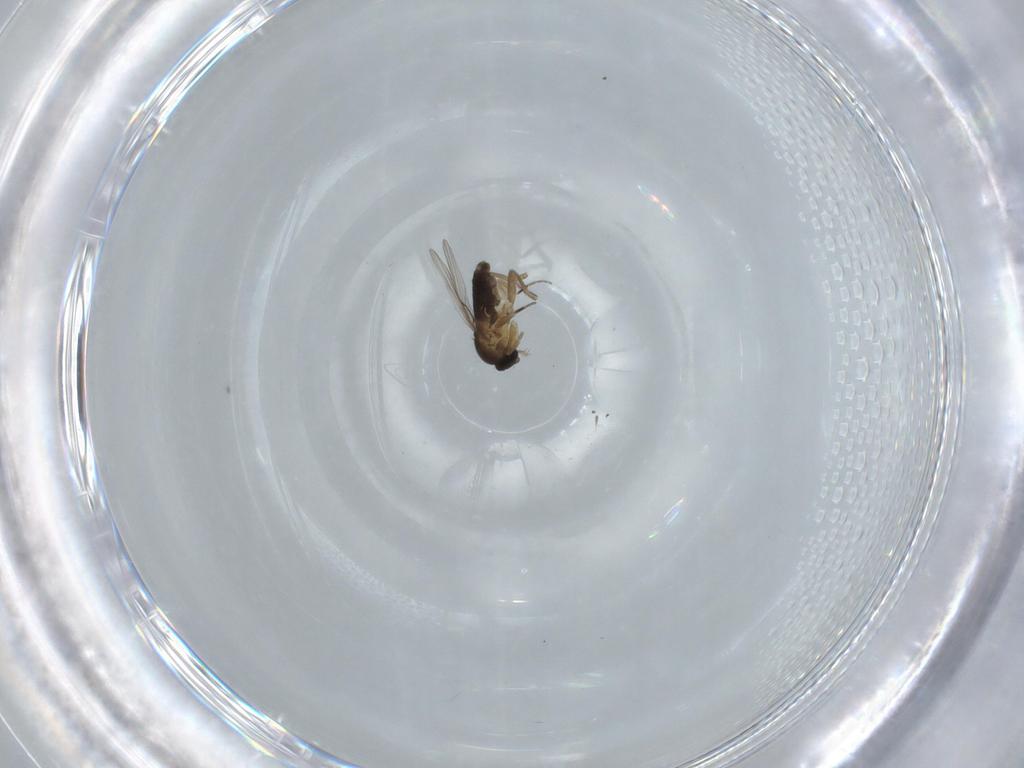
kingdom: Animalia
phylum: Arthropoda
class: Insecta
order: Diptera
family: Phoridae
